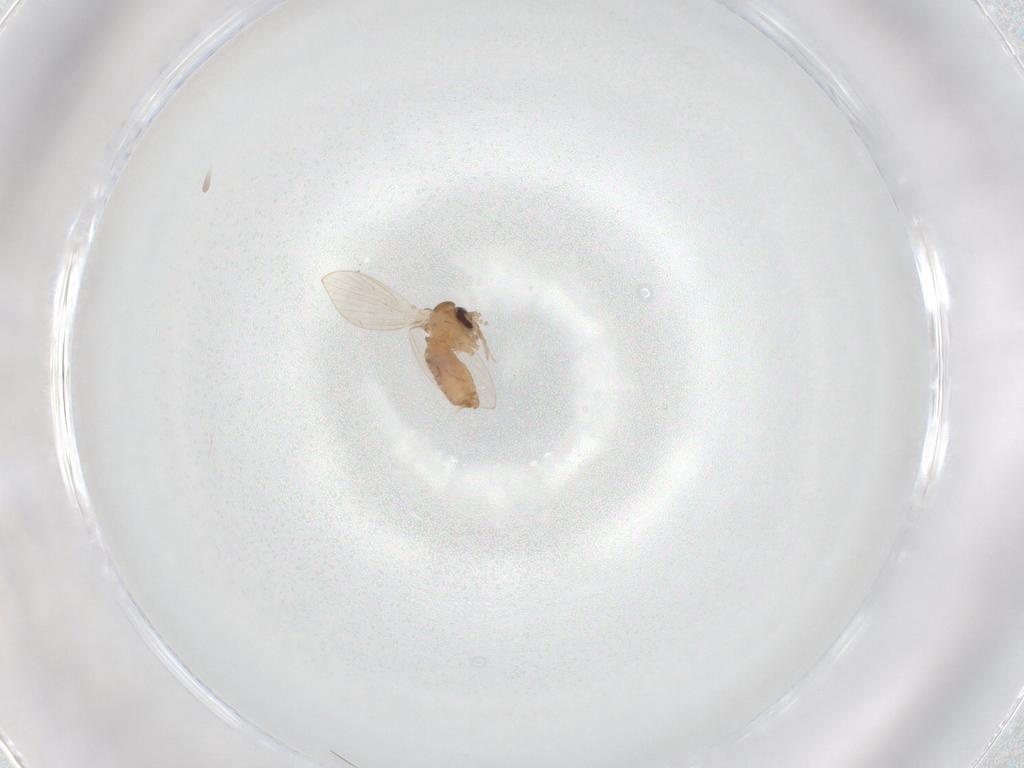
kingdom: Animalia
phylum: Arthropoda
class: Insecta
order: Diptera
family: Psychodidae
